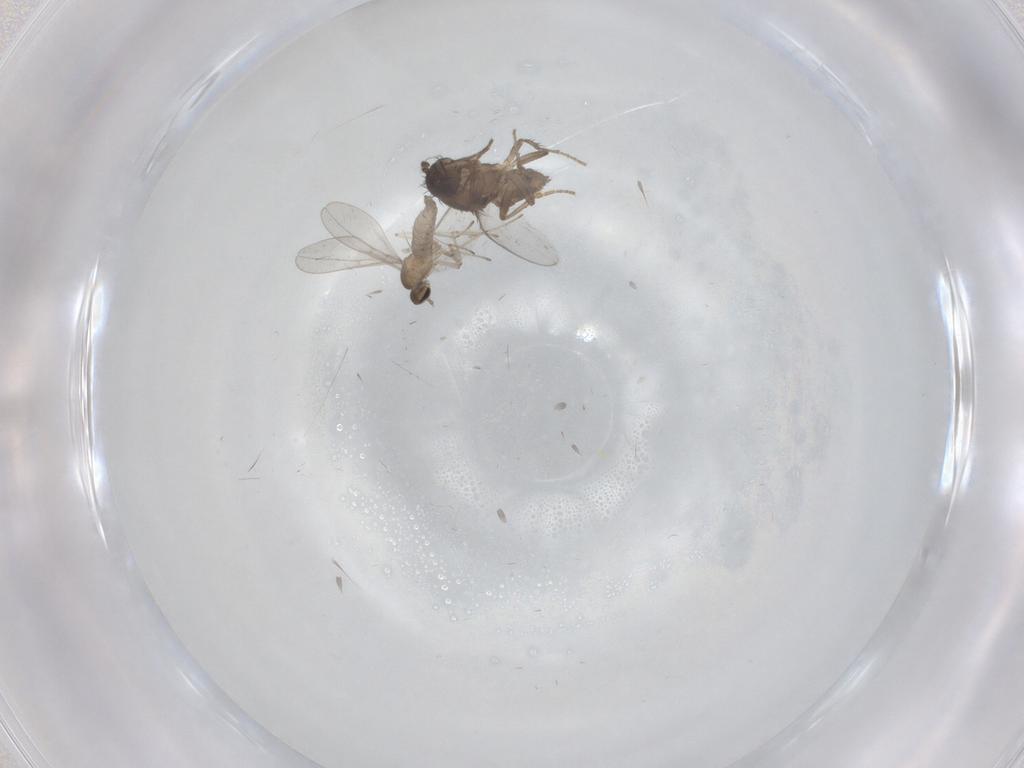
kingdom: Animalia
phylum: Arthropoda
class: Insecta
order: Diptera
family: Sphaeroceridae
